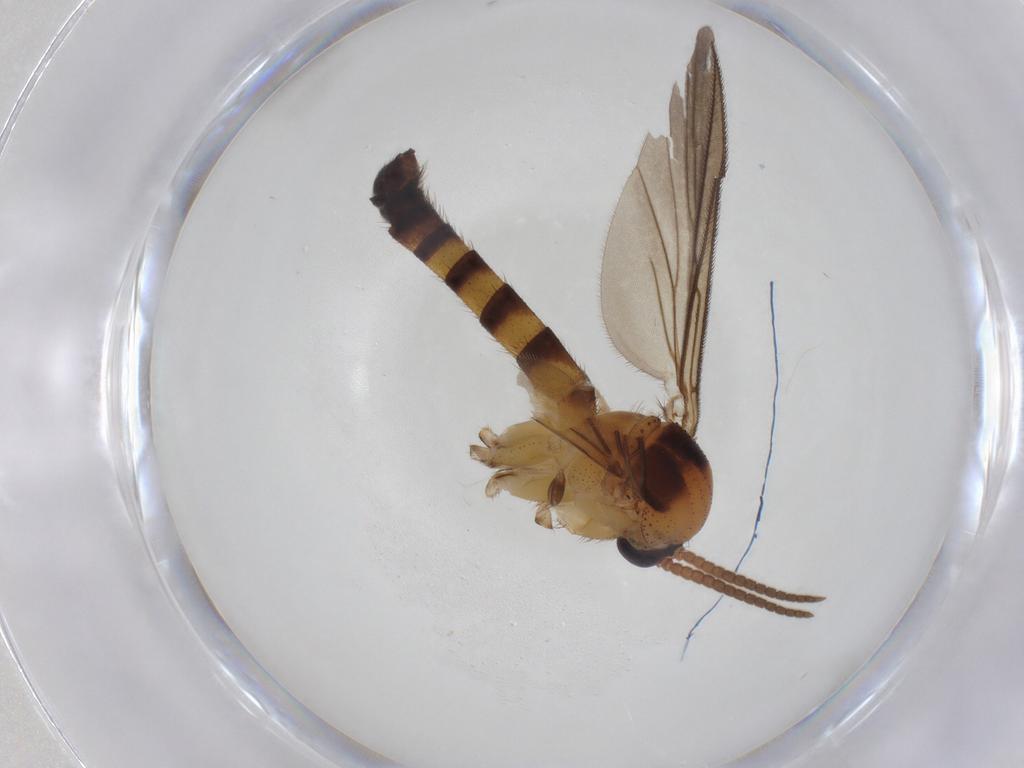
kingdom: Animalia
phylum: Arthropoda
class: Insecta
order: Diptera
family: Mycetophilidae
